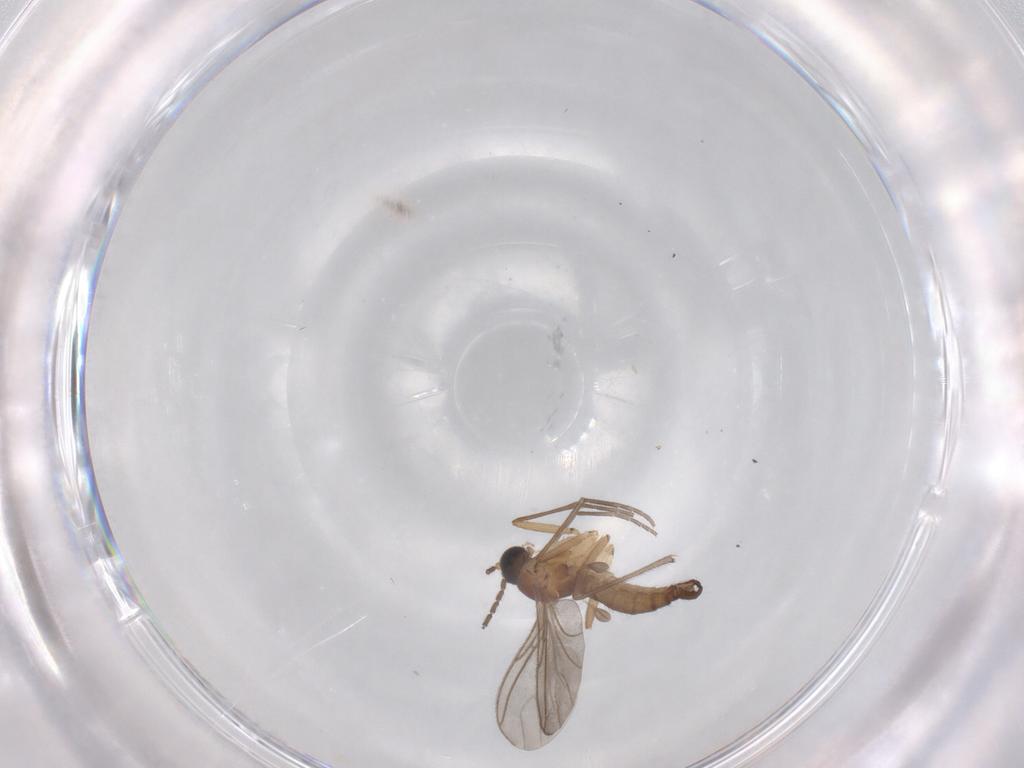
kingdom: Animalia
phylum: Arthropoda
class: Insecta
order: Diptera
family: Sciaridae
